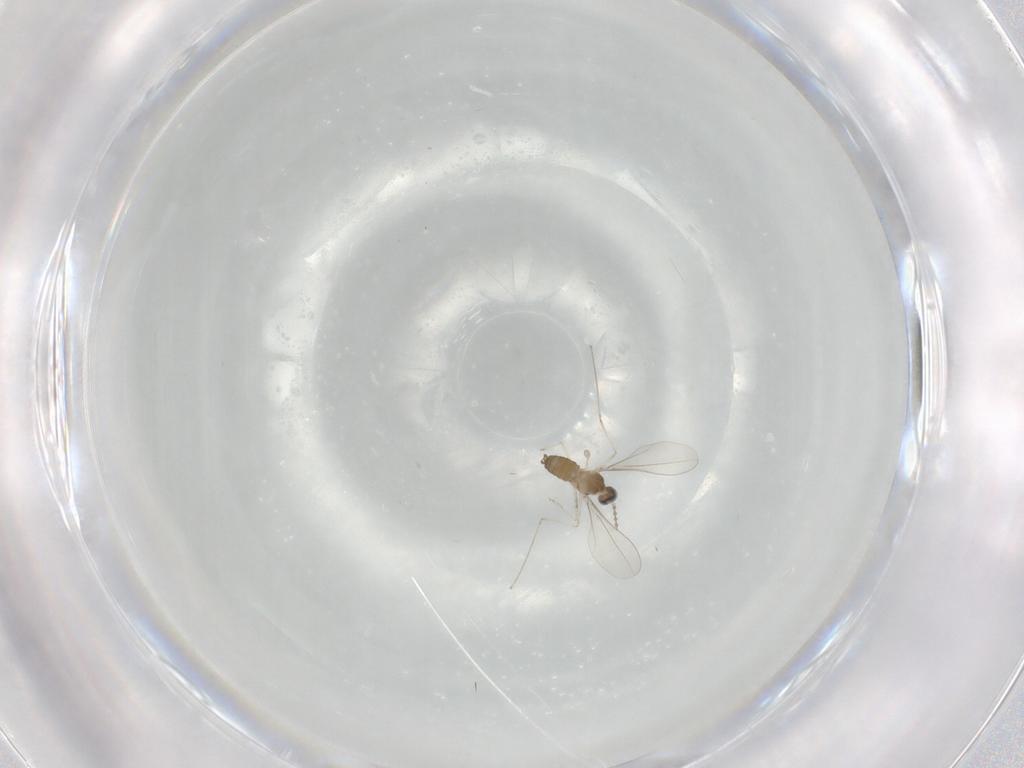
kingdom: Animalia
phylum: Arthropoda
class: Insecta
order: Diptera
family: Cecidomyiidae
